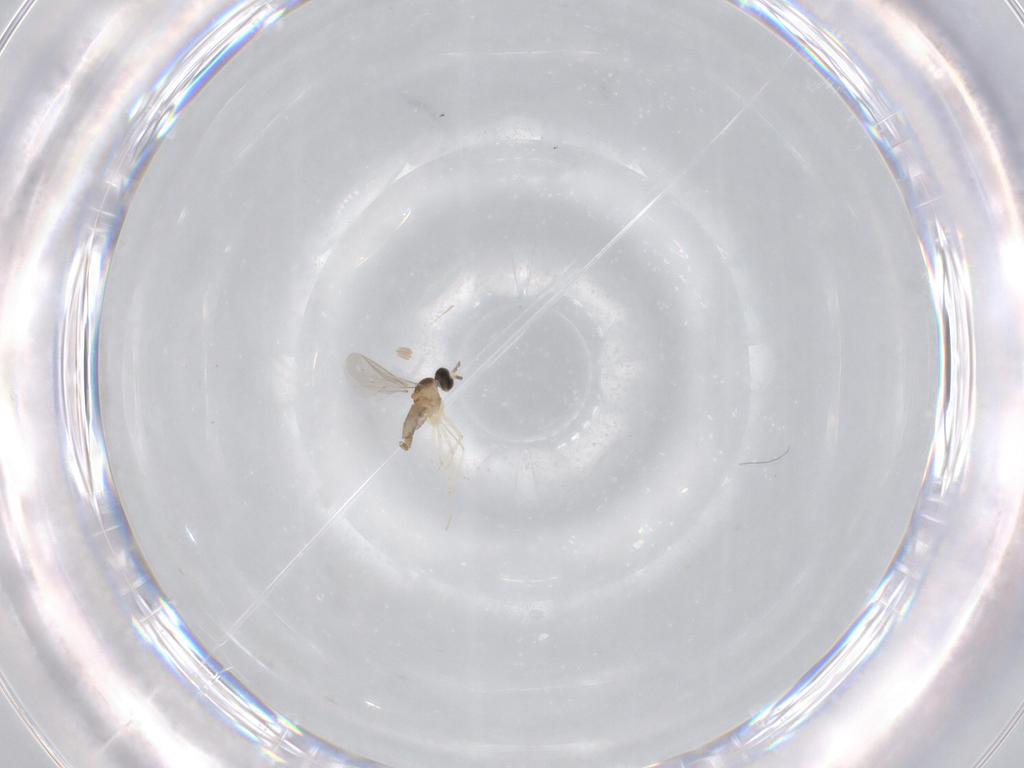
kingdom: Animalia
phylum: Arthropoda
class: Insecta
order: Diptera
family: Cecidomyiidae
